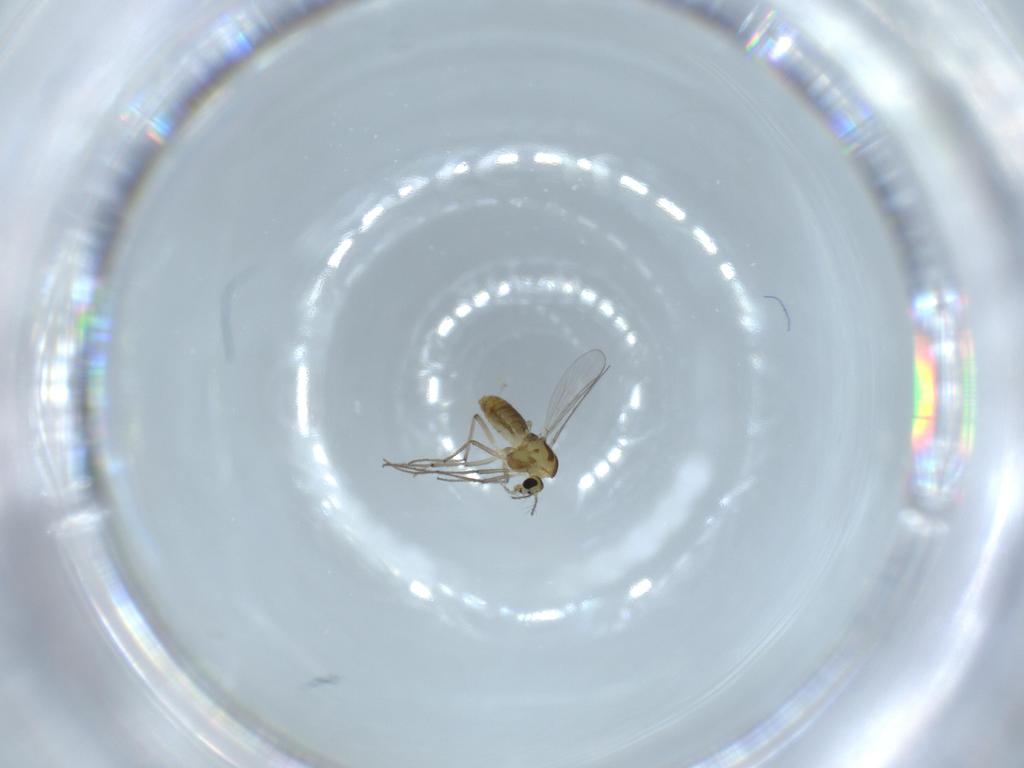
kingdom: Animalia
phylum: Arthropoda
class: Insecta
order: Diptera
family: Chironomidae
